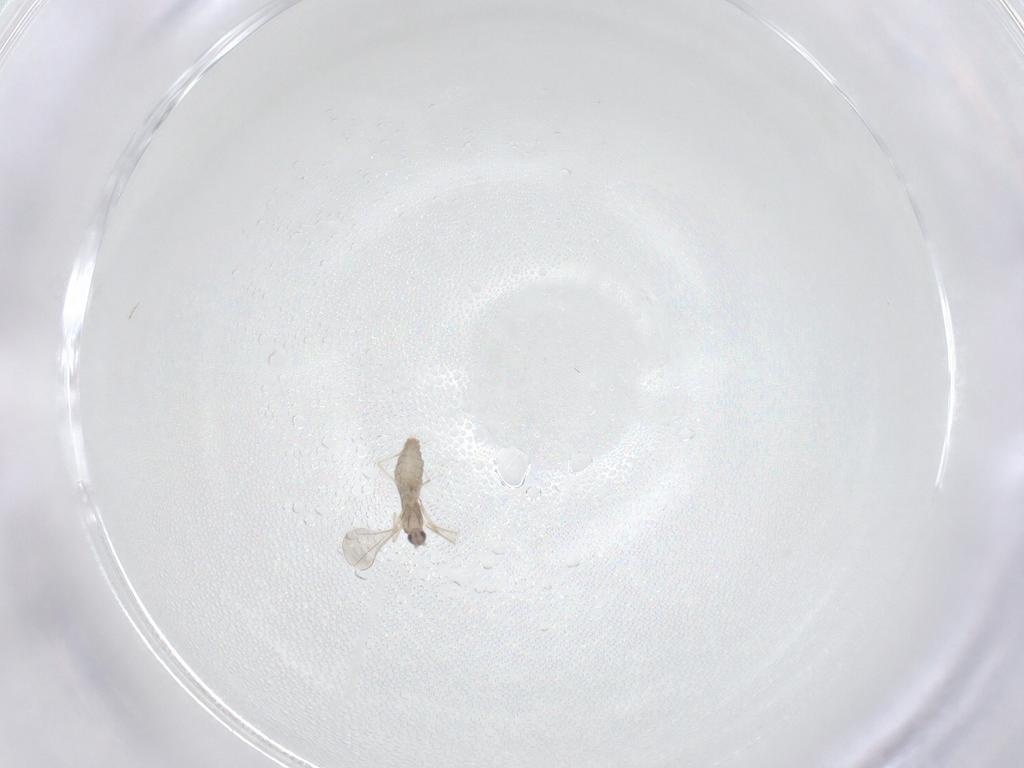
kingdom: Animalia
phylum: Arthropoda
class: Insecta
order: Diptera
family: Cecidomyiidae
